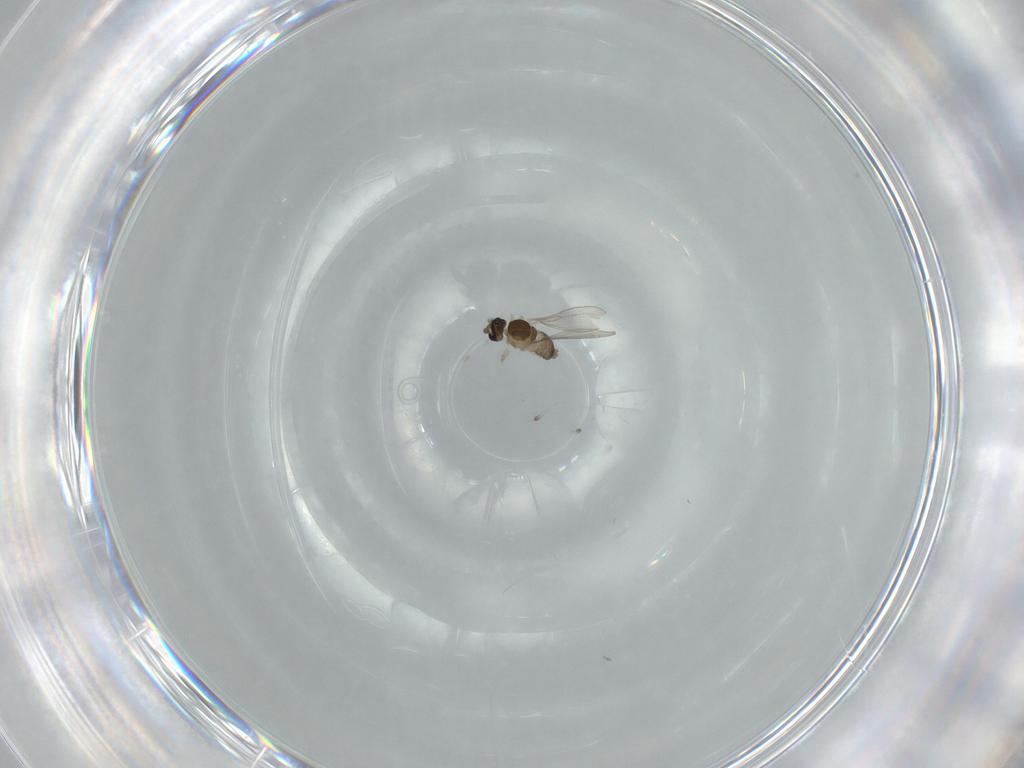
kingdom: Animalia
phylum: Arthropoda
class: Insecta
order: Diptera
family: Cecidomyiidae
